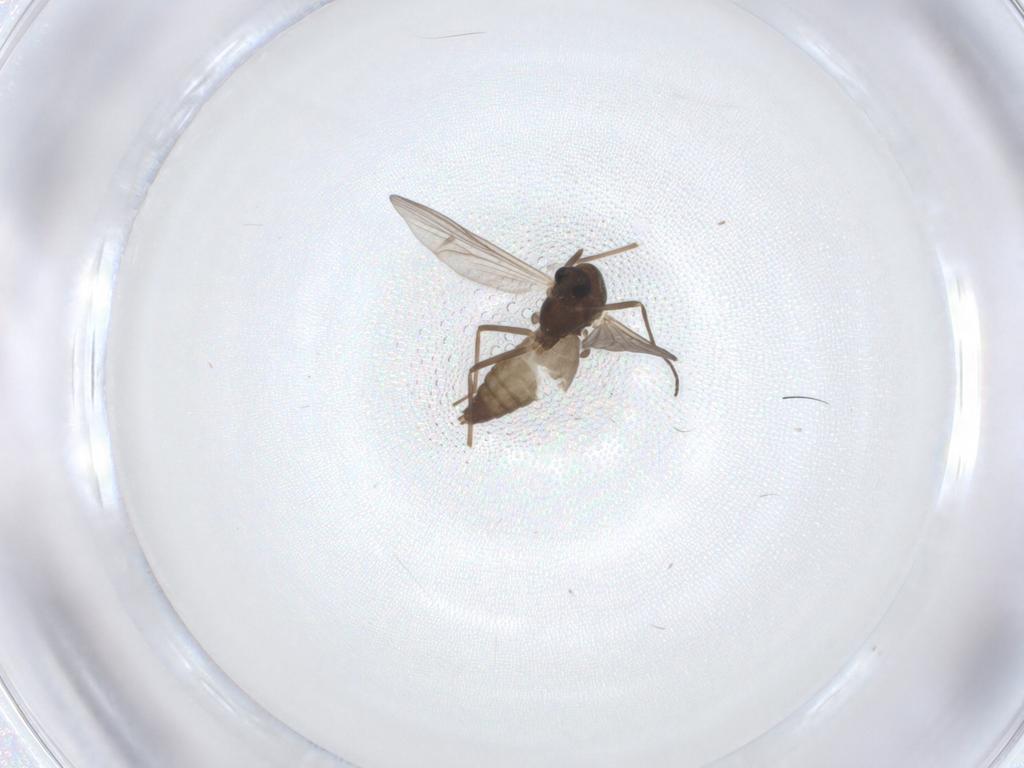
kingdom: Animalia
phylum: Arthropoda
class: Insecta
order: Diptera
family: Chironomidae
